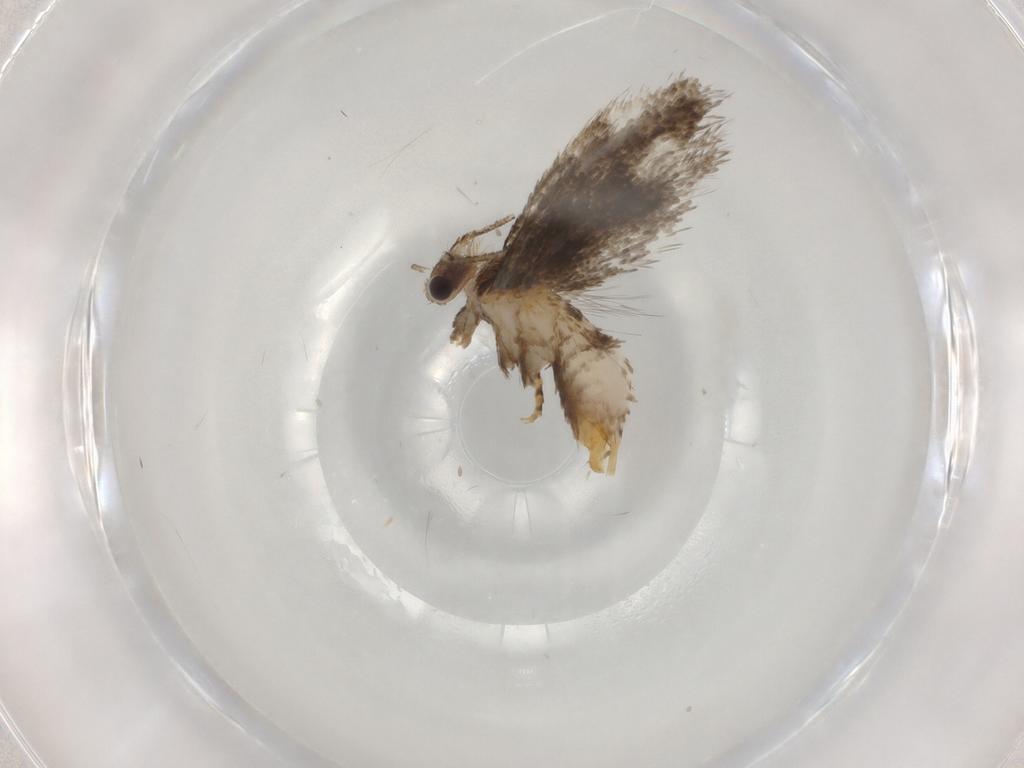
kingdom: Animalia
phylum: Arthropoda
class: Insecta
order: Lepidoptera
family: Tineidae
